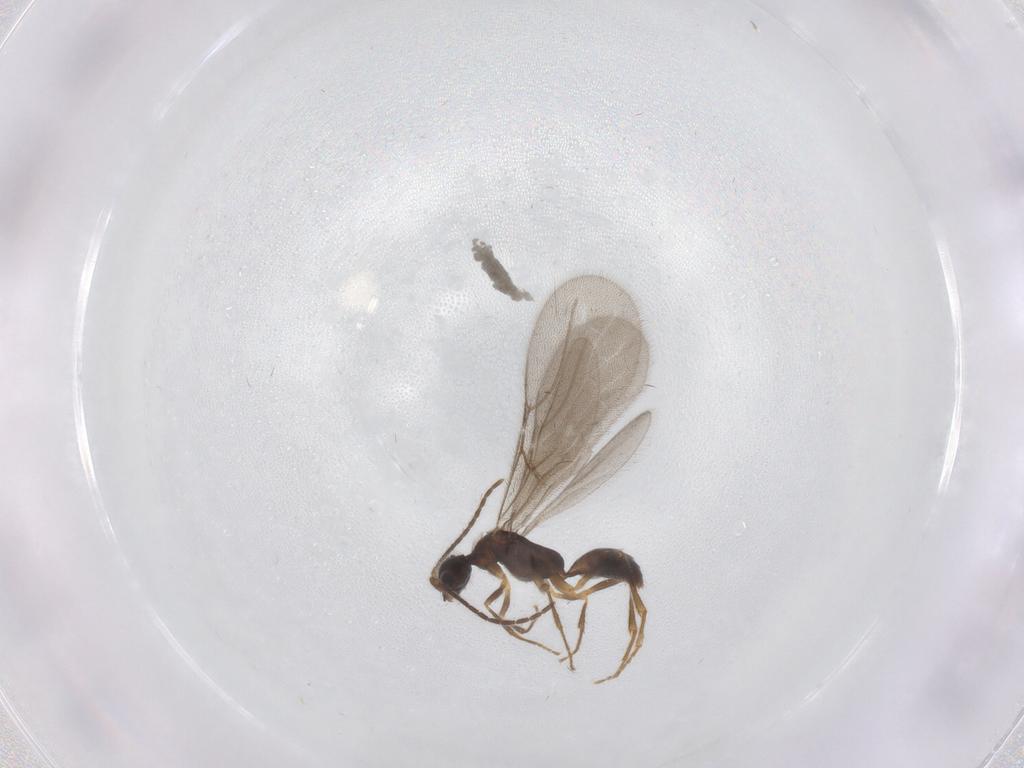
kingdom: Animalia
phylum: Arthropoda
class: Insecta
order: Hymenoptera
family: Bethylidae
